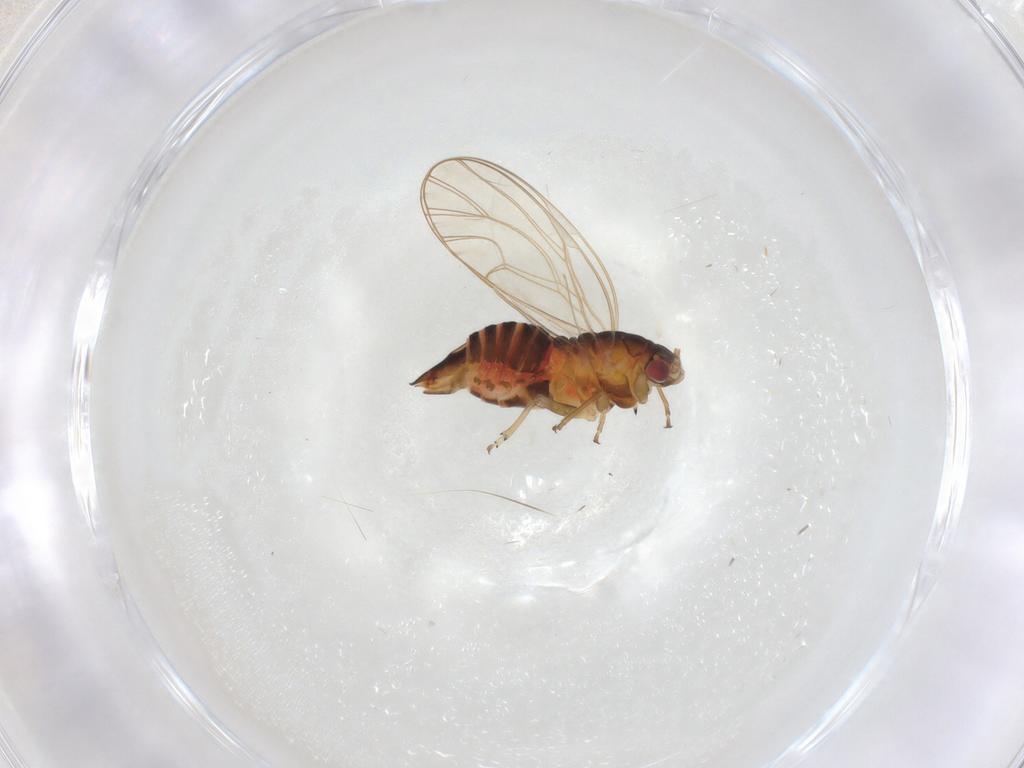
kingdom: Animalia
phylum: Arthropoda
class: Insecta
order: Hemiptera
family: Psyllidae
